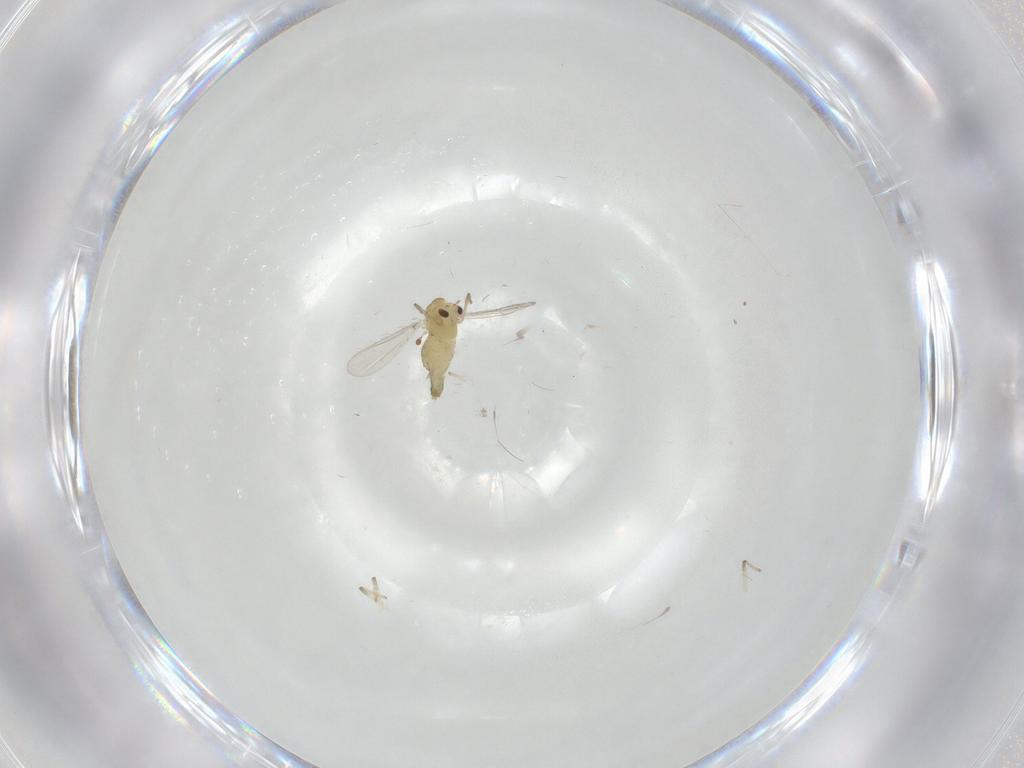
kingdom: Animalia
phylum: Arthropoda
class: Insecta
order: Diptera
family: Chironomidae
